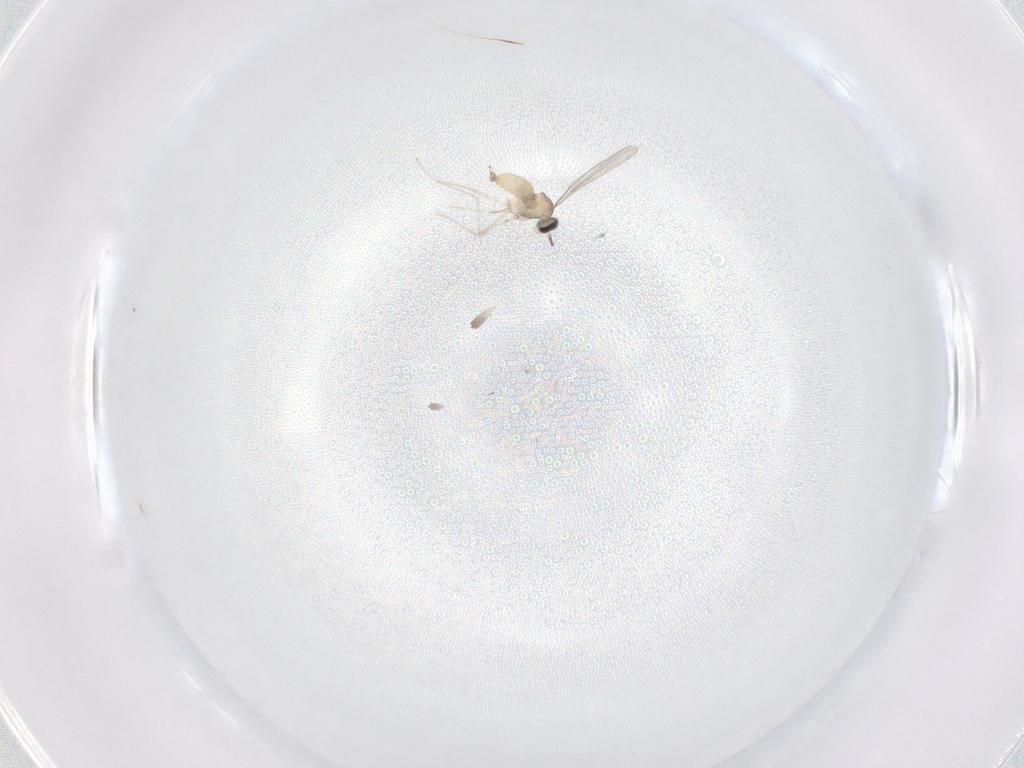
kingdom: Animalia
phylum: Arthropoda
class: Insecta
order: Diptera
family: Cecidomyiidae
